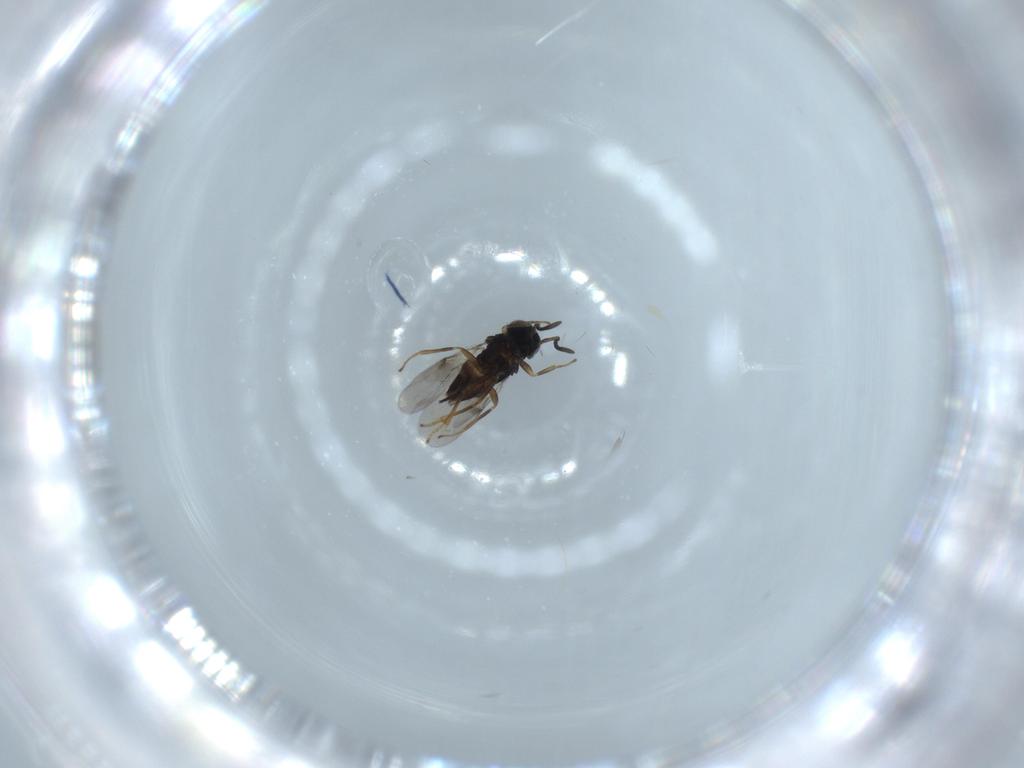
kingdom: Animalia
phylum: Arthropoda
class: Insecta
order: Hymenoptera
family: Encyrtidae
